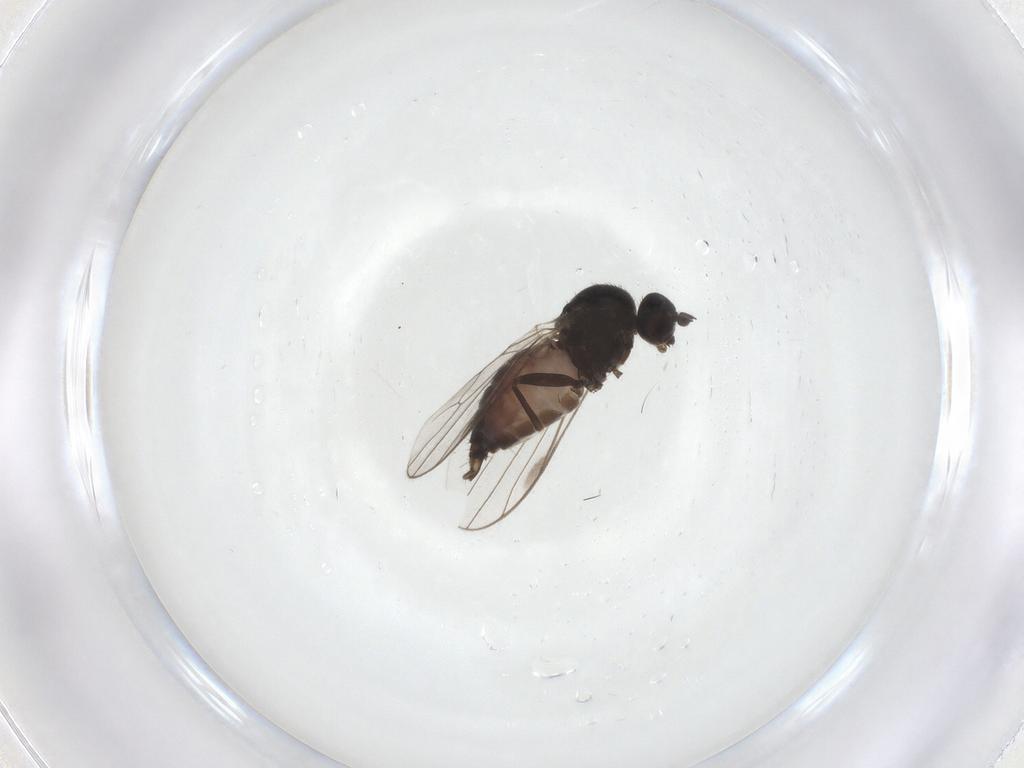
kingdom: Animalia
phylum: Arthropoda
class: Insecta
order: Diptera
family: Hybotidae
